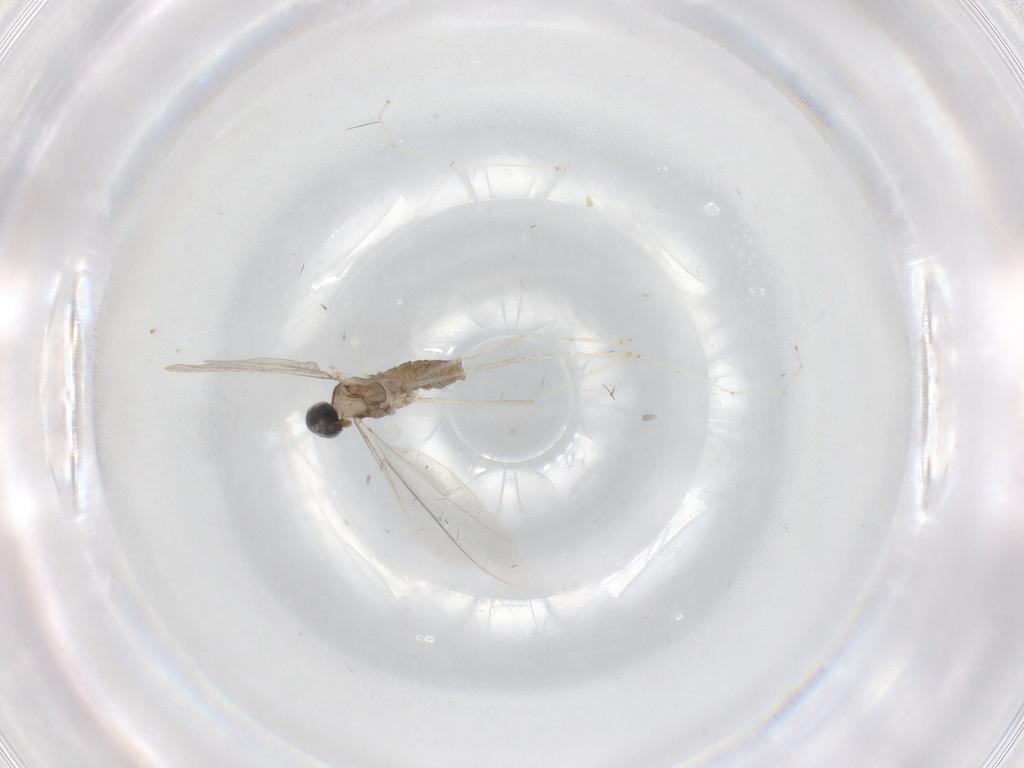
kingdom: Animalia
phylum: Arthropoda
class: Insecta
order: Diptera
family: Cecidomyiidae
